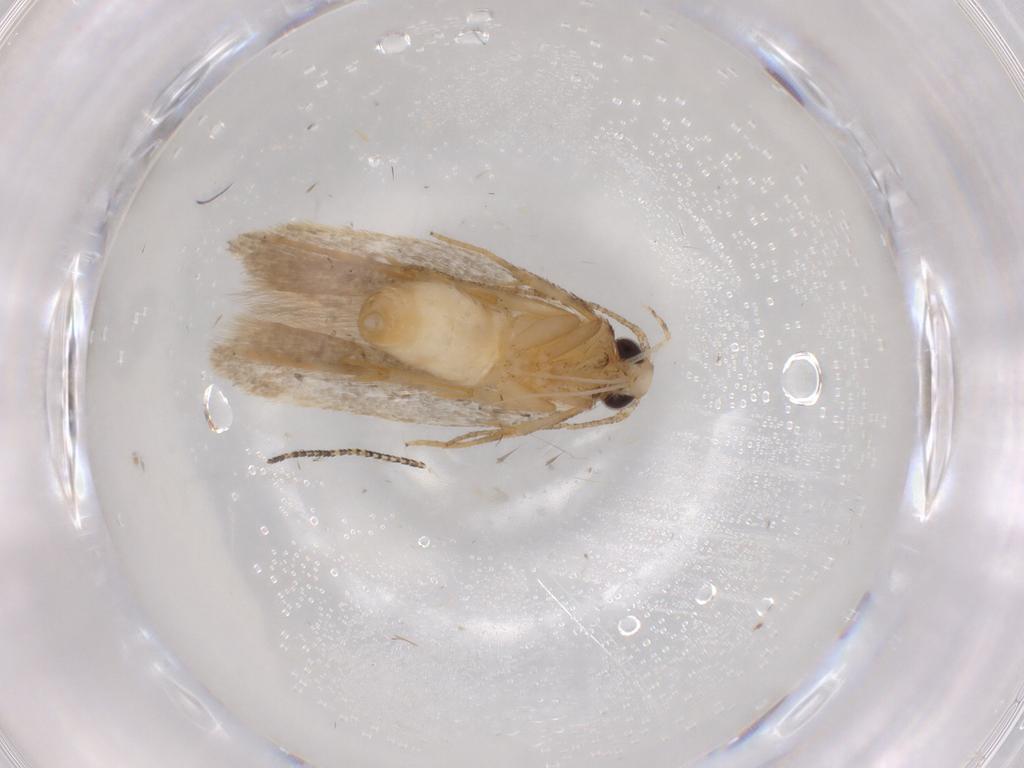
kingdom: Animalia
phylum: Arthropoda
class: Insecta
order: Lepidoptera
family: Autostichidae
